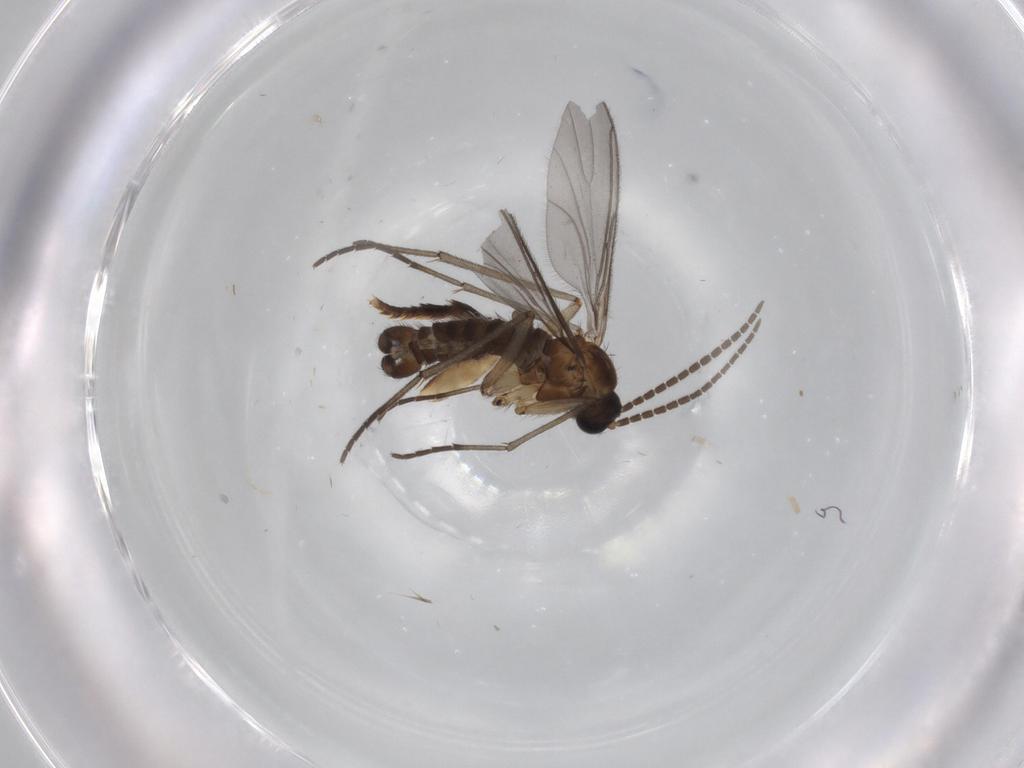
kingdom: Animalia
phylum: Arthropoda
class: Insecta
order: Diptera
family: Sciaridae
